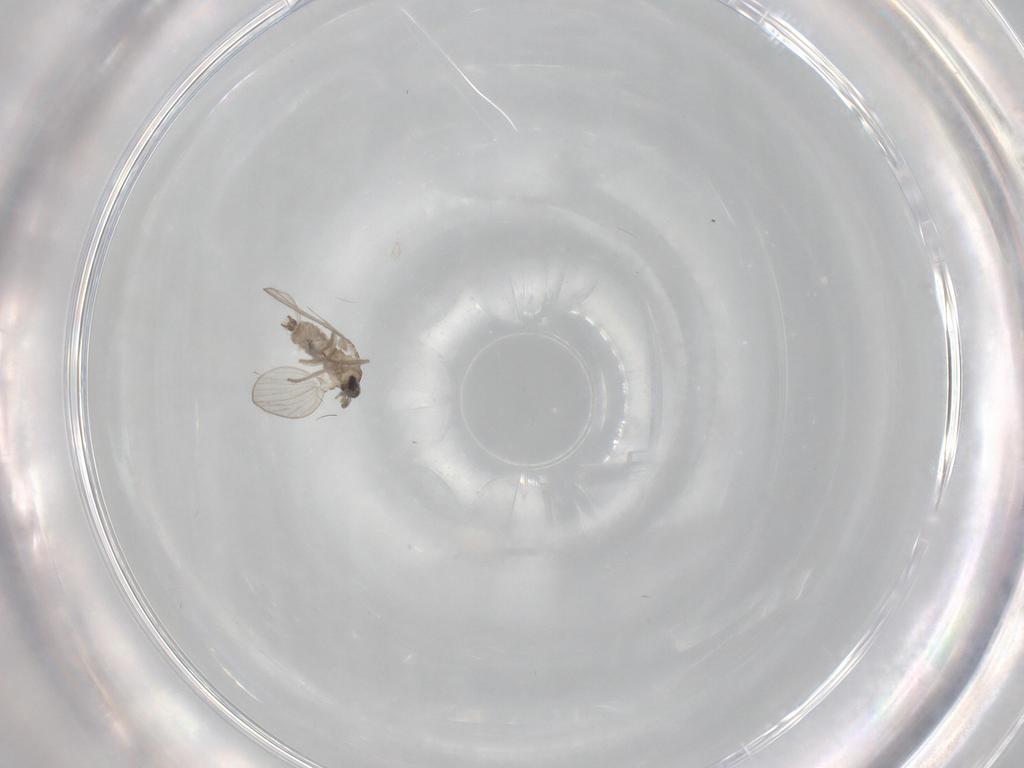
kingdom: Animalia
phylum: Arthropoda
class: Insecta
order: Diptera
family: Psychodidae
